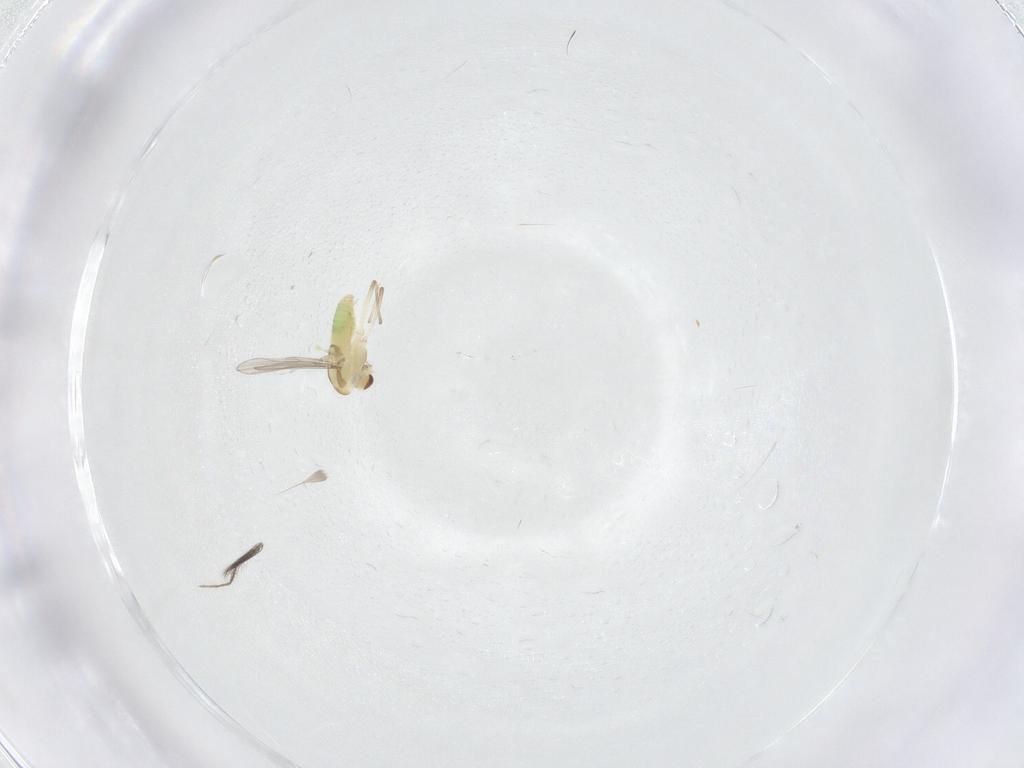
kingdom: Animalia
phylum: Arthropoda
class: Insecta
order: Diptera
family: Chironomidae
